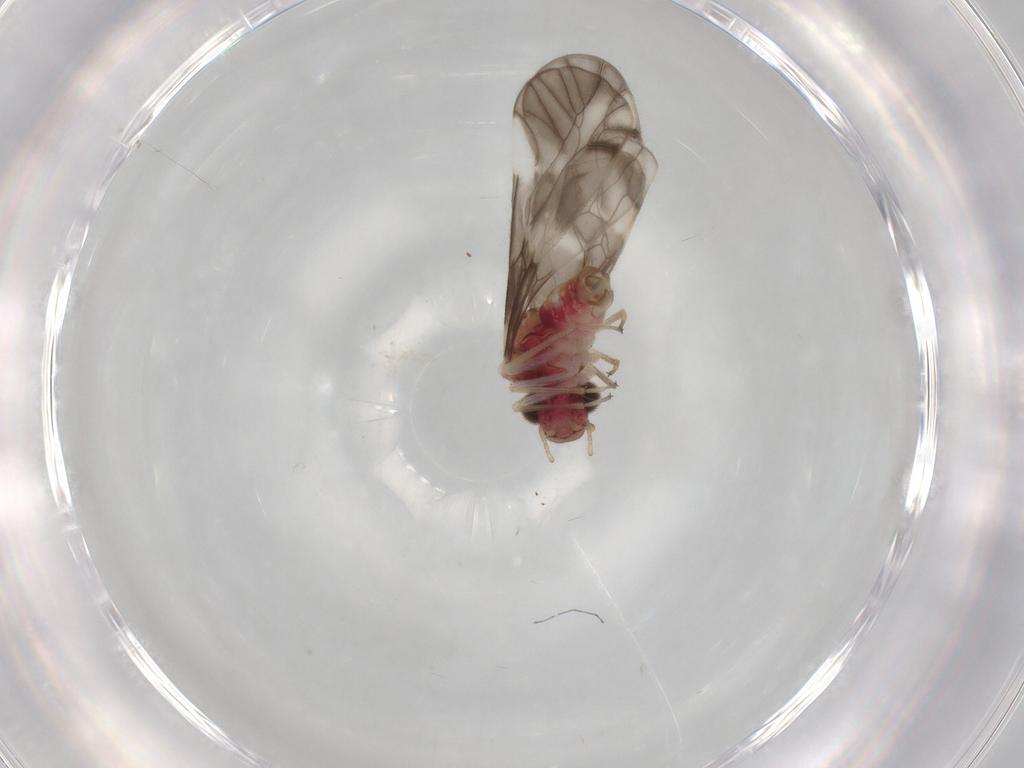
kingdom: Animalia
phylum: Arthropoda
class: Insecta
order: Psocodea
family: Caeciliusidae
